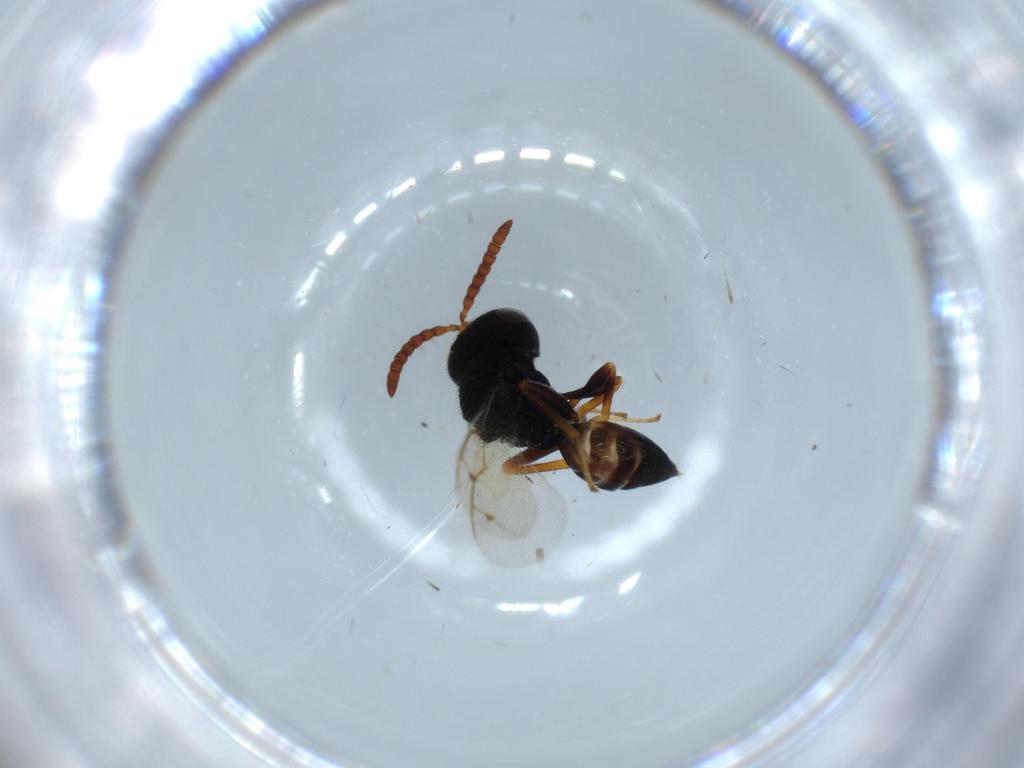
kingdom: Animalia
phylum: Arthropoda
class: Insecta
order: Hymenoptera
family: Pteromalidae
